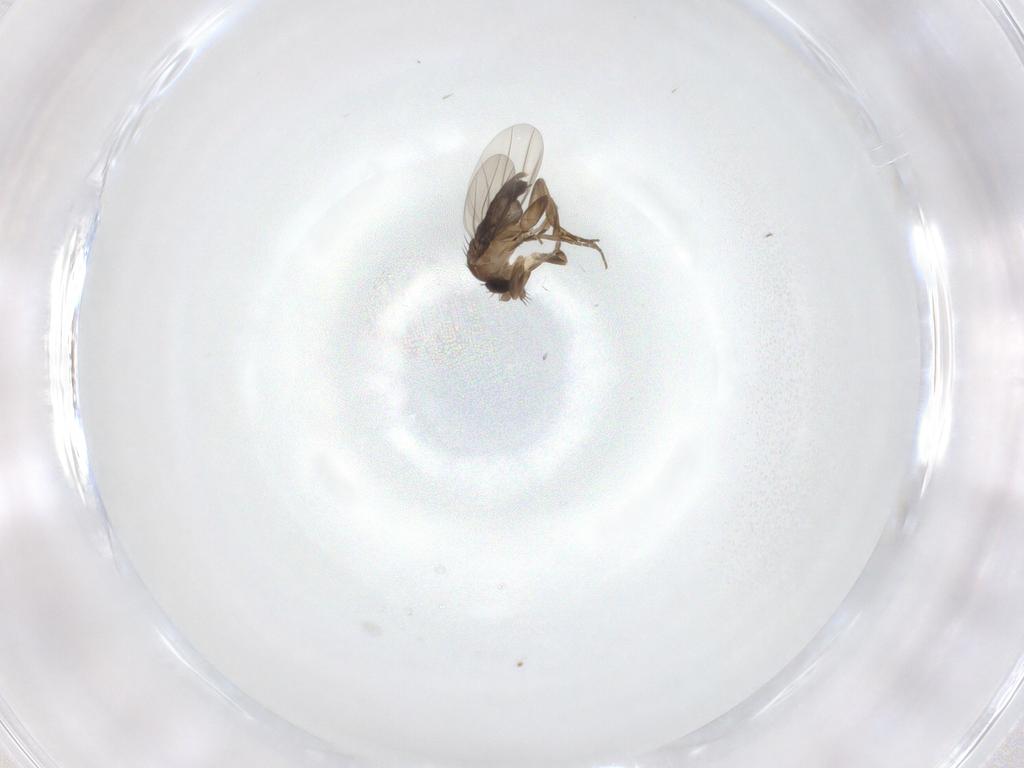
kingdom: Animalia
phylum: Arthropoda
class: Insecta
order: Diptera
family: Phoridae
